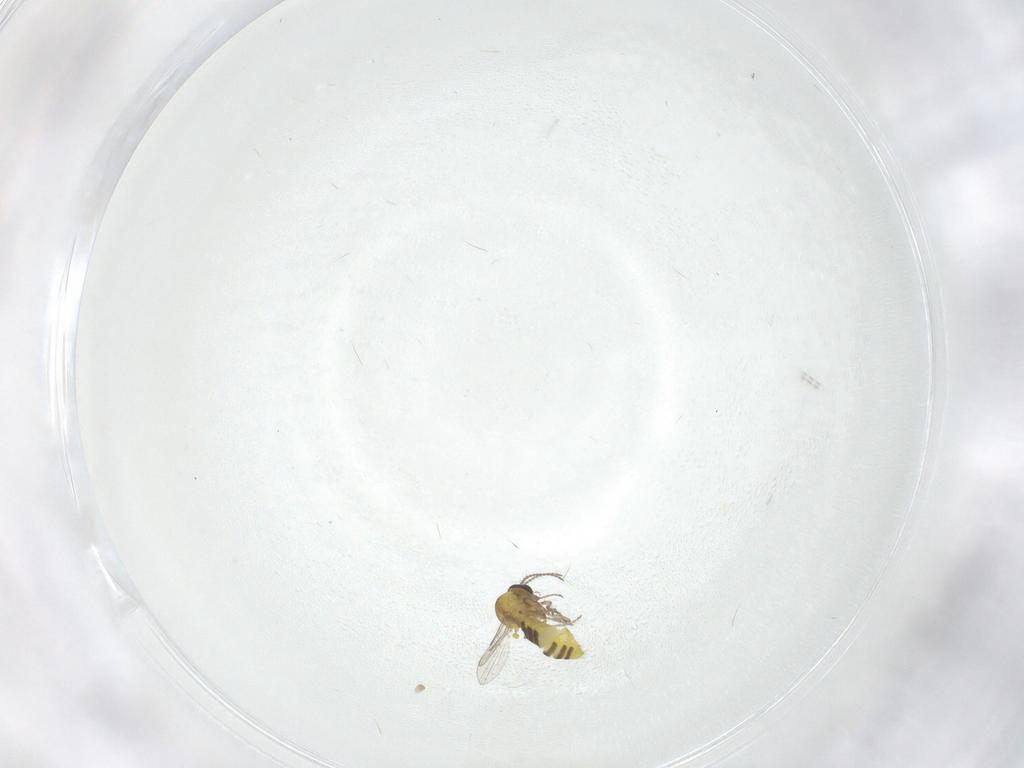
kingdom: Animalia
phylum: Arthropoda
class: Insecta
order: Diptera
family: Ceratopogonidae
